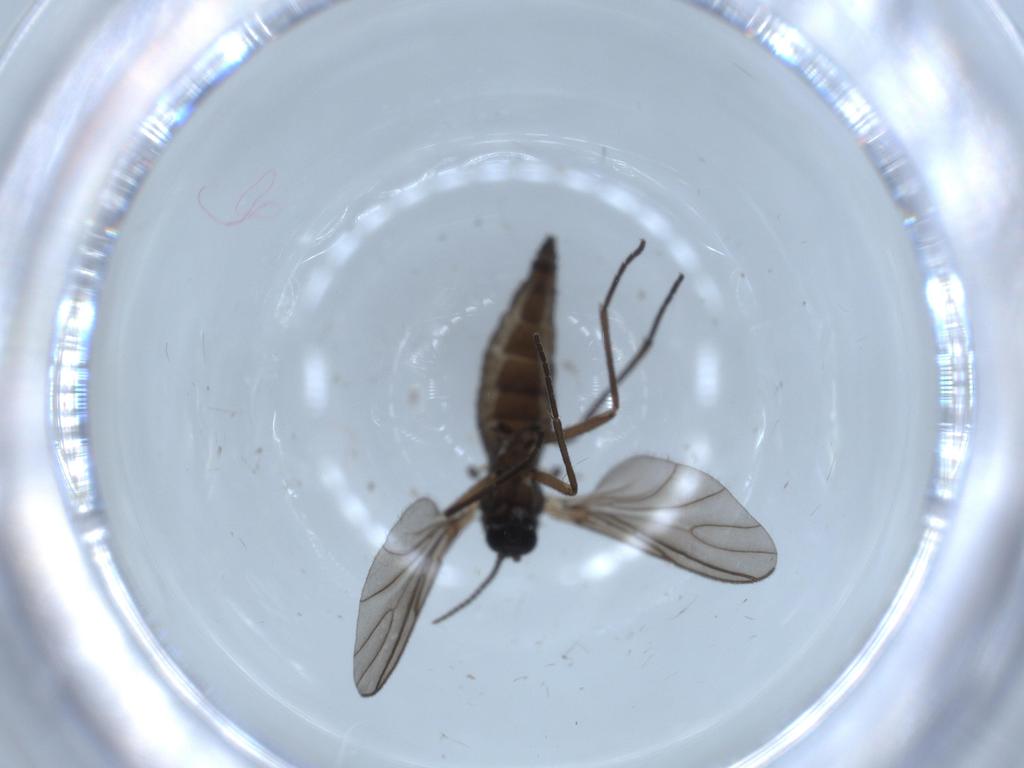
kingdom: Animalia
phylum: Arthropoda
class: Insecta
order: Diptera
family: Sciaridae
